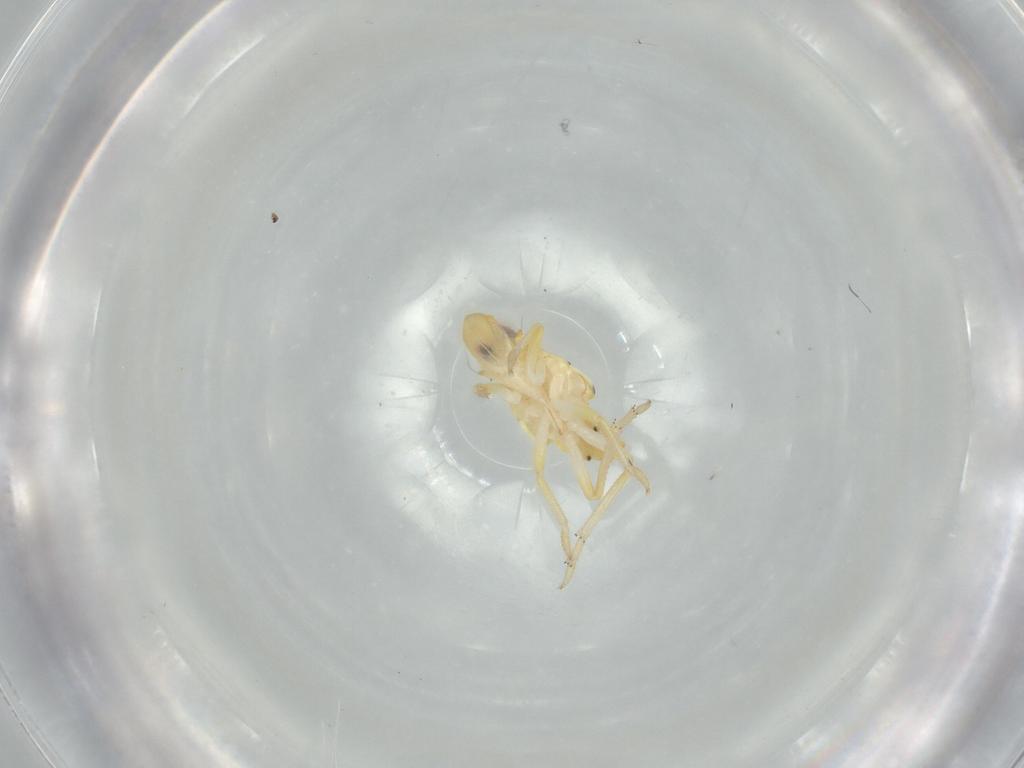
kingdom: Animalia
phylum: Arthropoda
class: Insecta
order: Hemiptera
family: Tropiduchidae
